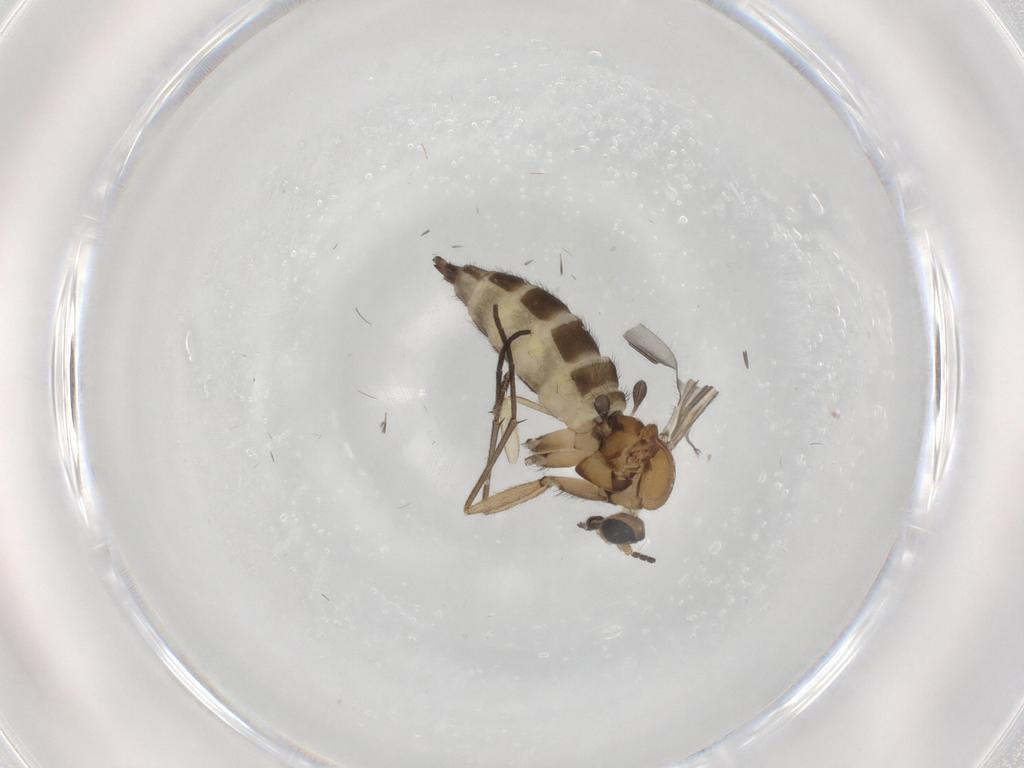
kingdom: Animalia
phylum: Arthropoda
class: Insecta
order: Diptera
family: Sciaridae
